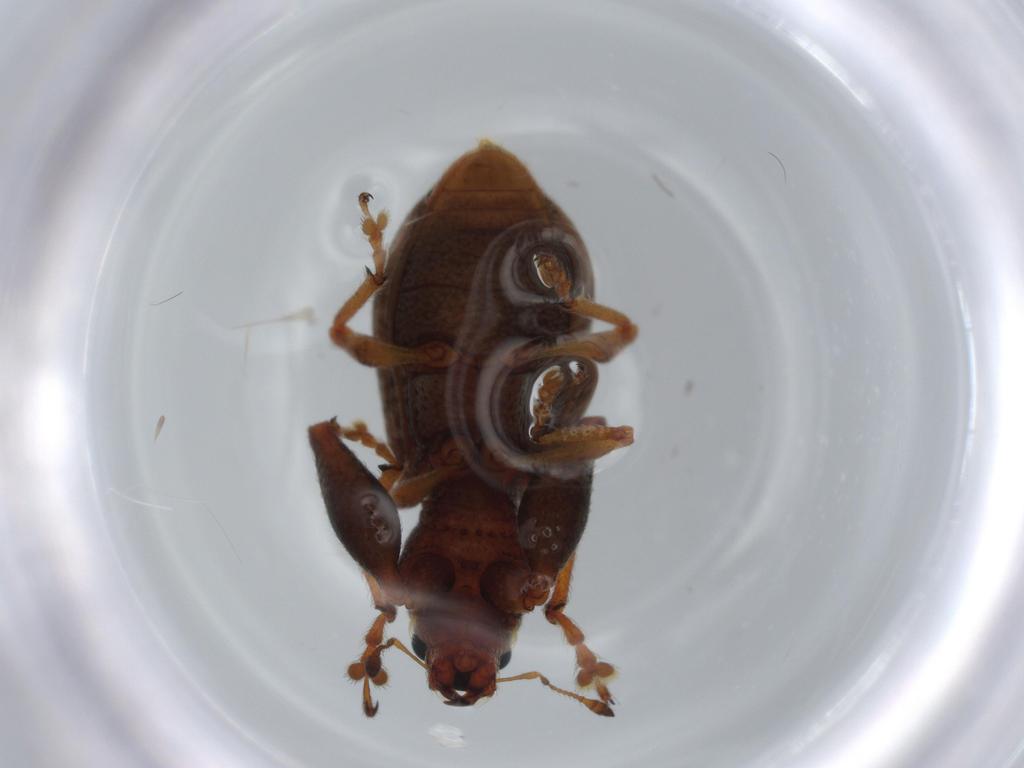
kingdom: Animalia
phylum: Arthropoda
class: Insecta
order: Coleoptera
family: Curculionidae
